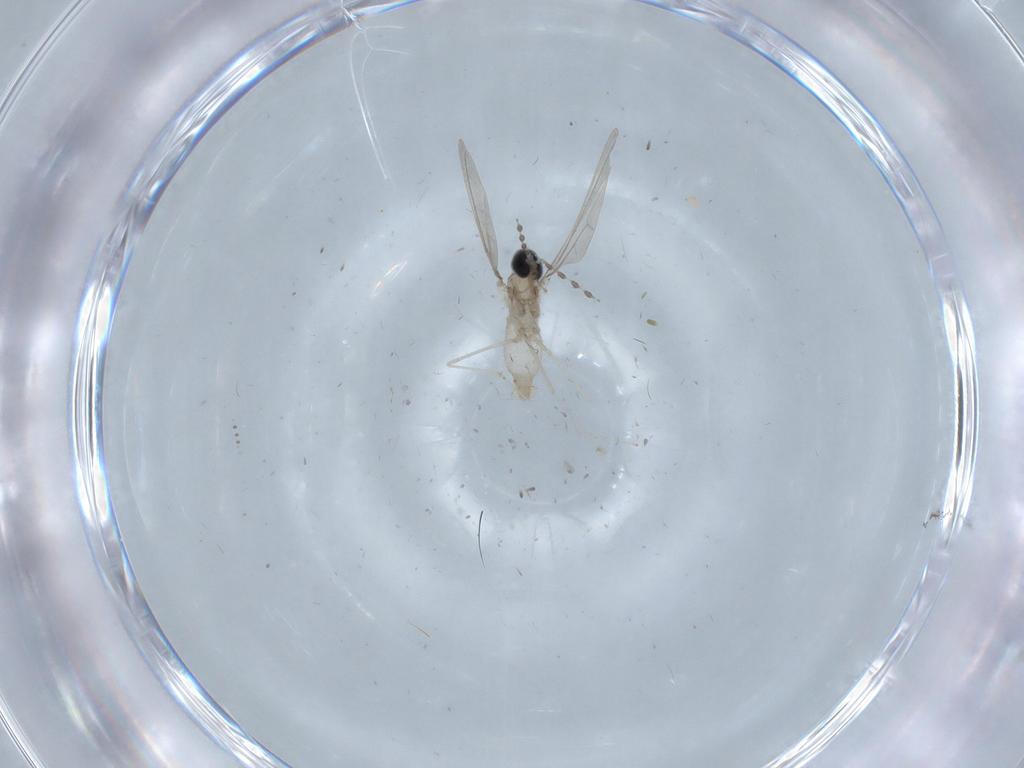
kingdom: Animalia
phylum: Arthropoda
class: Insecta
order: Diptera
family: Cecidomyiidae
